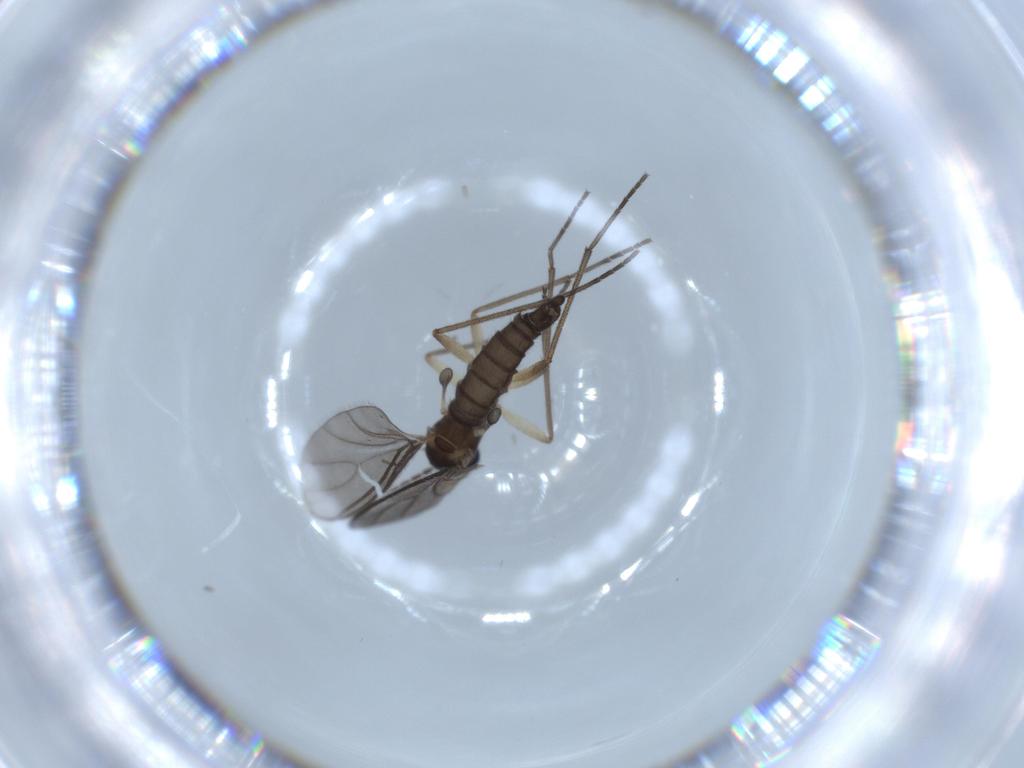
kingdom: Animalia
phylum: Arthropoda
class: Insecta
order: Diptera
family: Sciaridae
